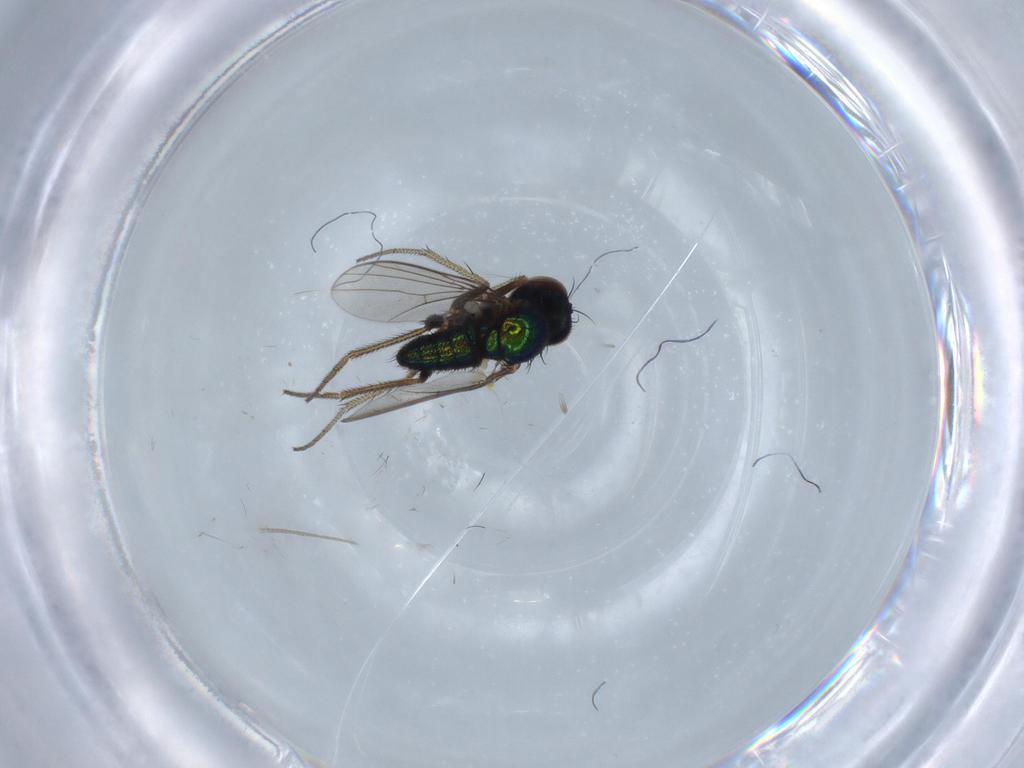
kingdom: Animalia
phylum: Arthropoda
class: Insecta
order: Diptera
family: Chironomidae
